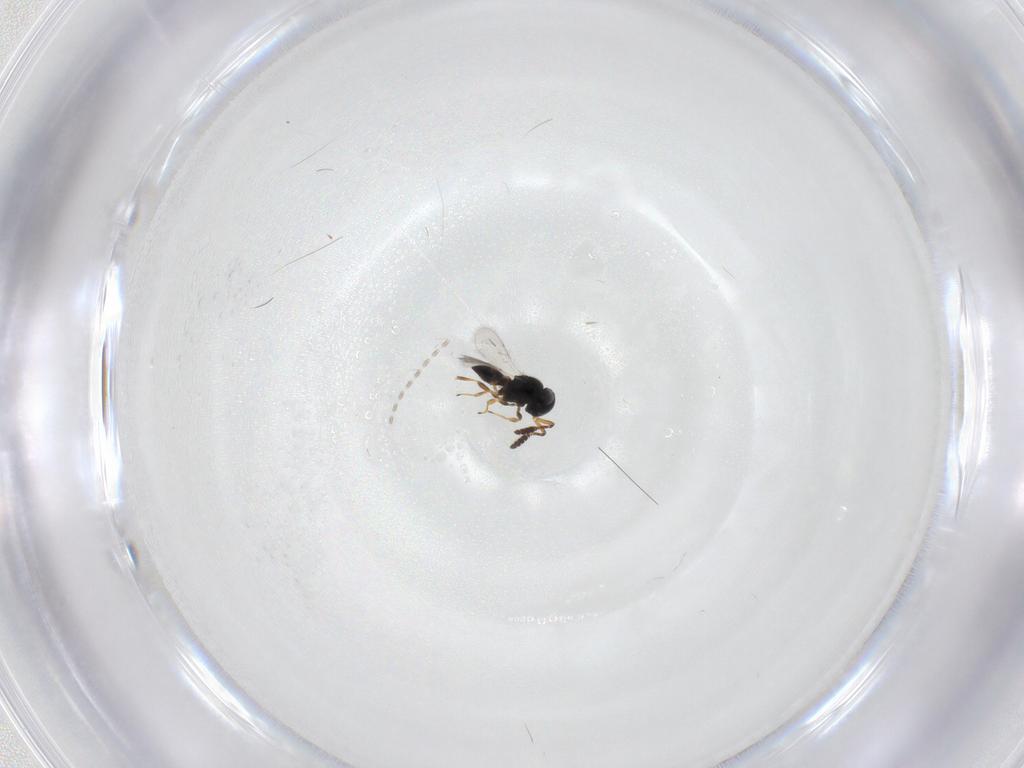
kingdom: Animalia
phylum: Arthropoda
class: Insecta
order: Hymenoptera
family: Scelionidae
